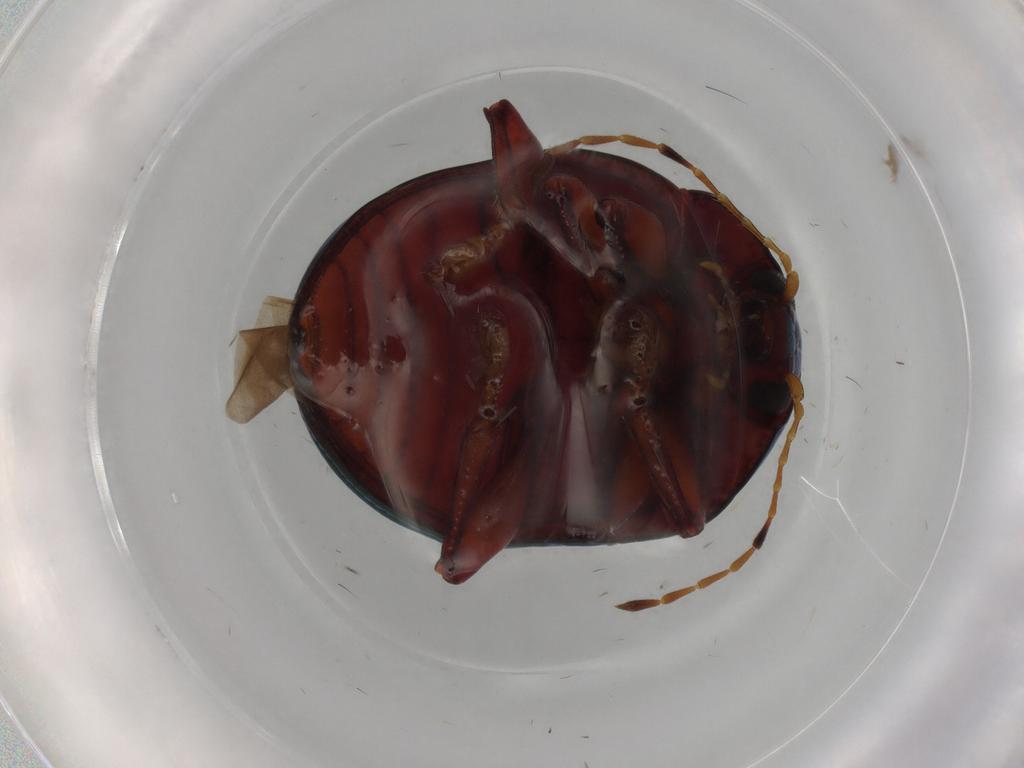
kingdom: Animalia
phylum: Arthropoda
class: Insecta
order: Coleoptera
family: Chrysomelidae
